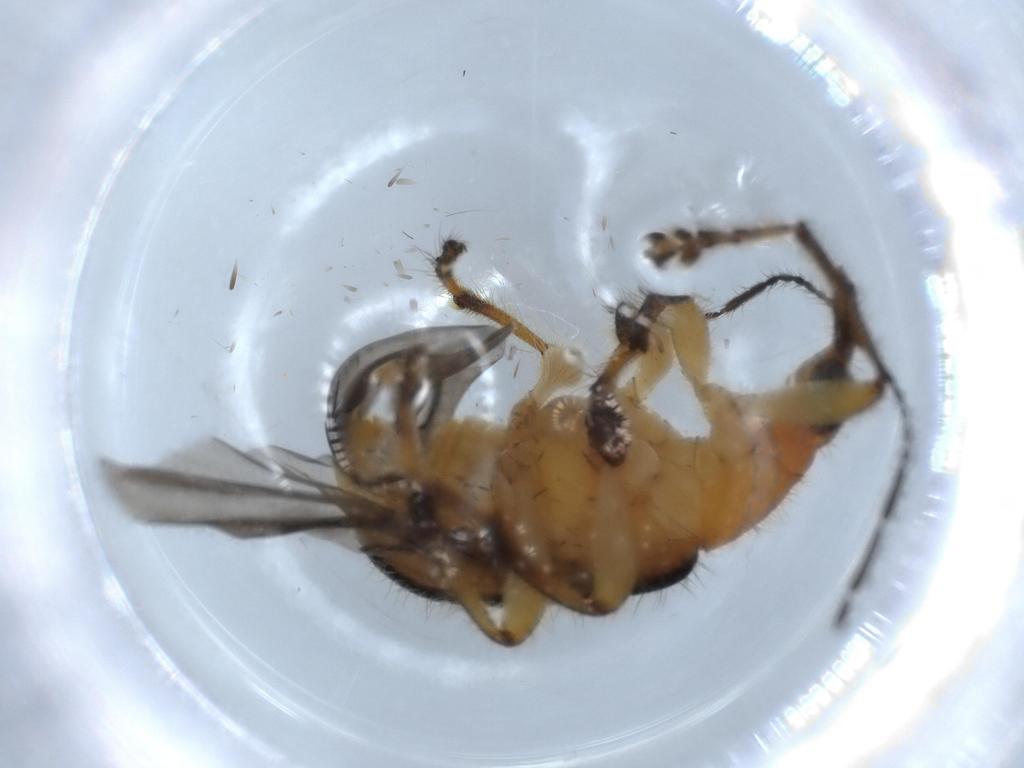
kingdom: Animalia
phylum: Arthropoda
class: Insecta
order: Coleoptera
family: Attelabidae
